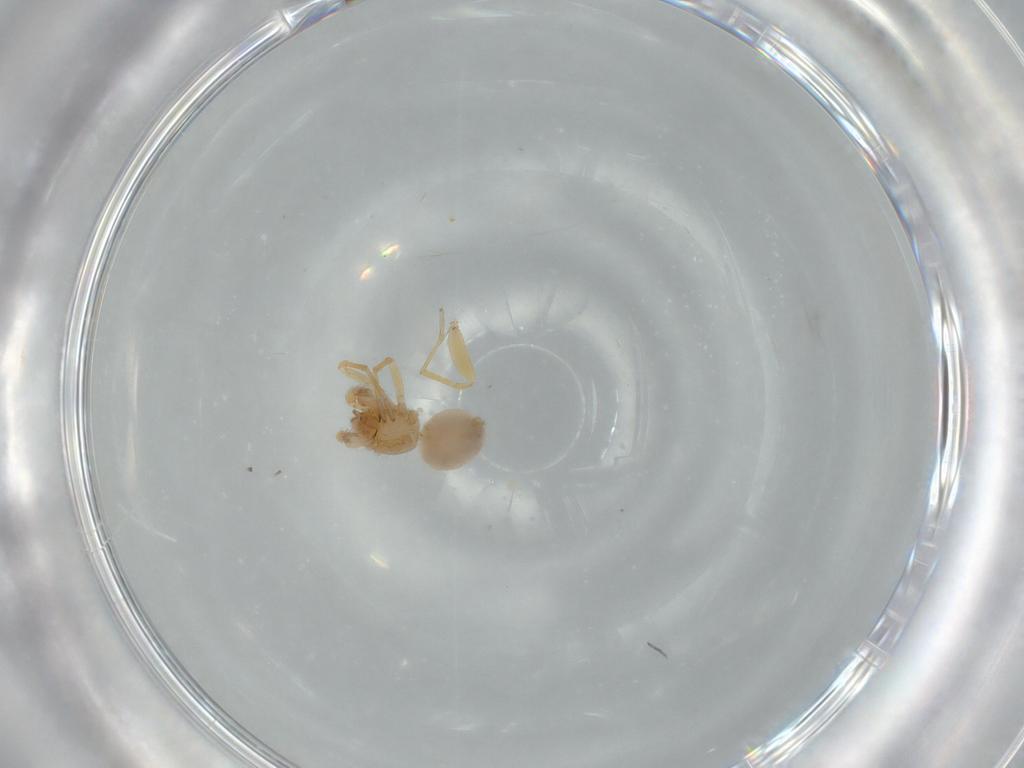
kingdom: Animalia
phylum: Arthropoda
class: Arachnida
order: Araneae
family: Oonopidae
